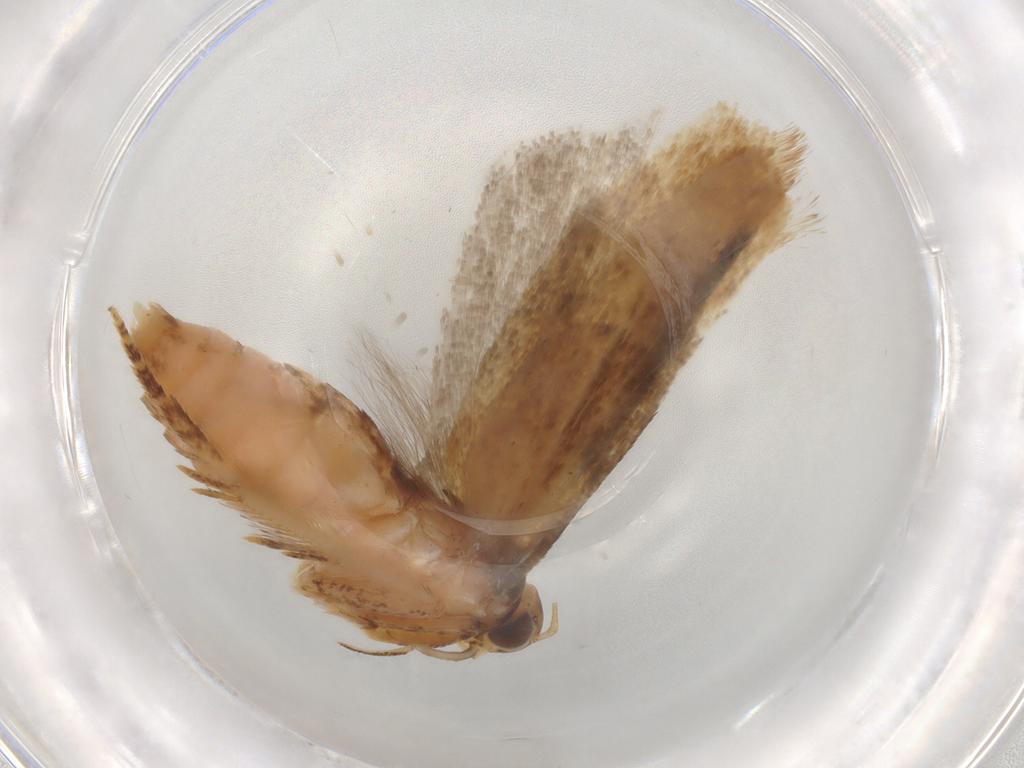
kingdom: Animalia
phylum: Arthropoda
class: Insecta
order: Lepidoptera
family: Gelechiidae
